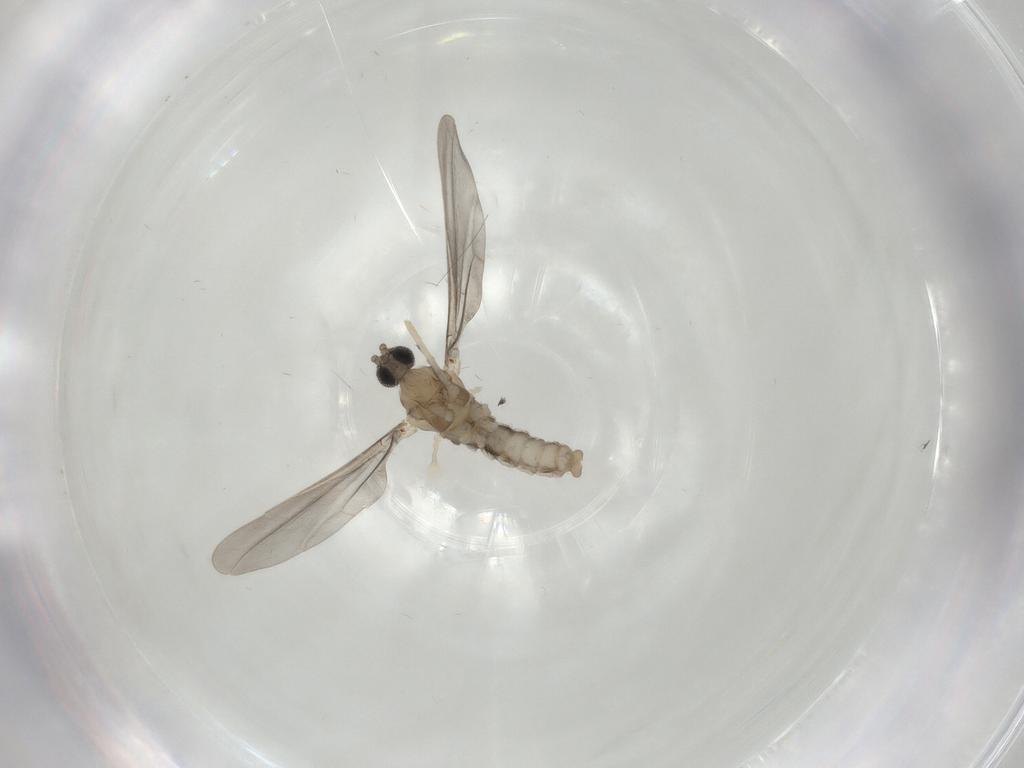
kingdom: Animalia
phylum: Arthropoda
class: Insecta
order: Diptera
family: Cecidomyiidae
